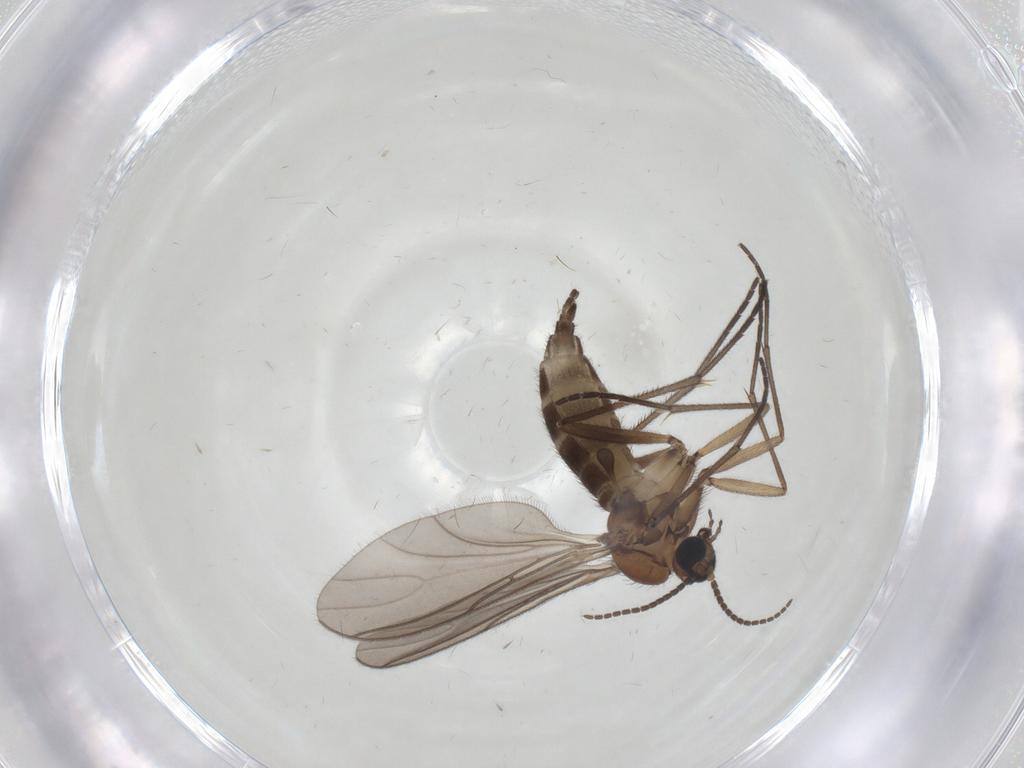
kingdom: Animalia
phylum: Arthropoda
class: Insecta
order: Diptera
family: Sciaridae
